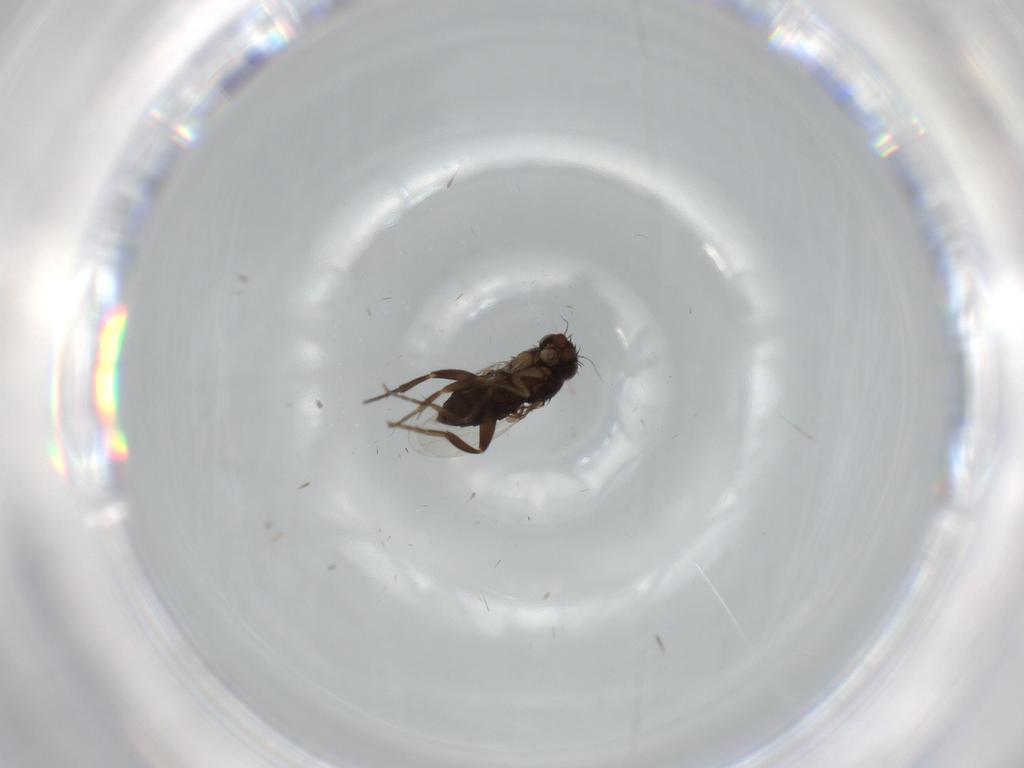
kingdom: Animalia
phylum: Arthropoda
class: Insecta
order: Diptera
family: Phoridae
